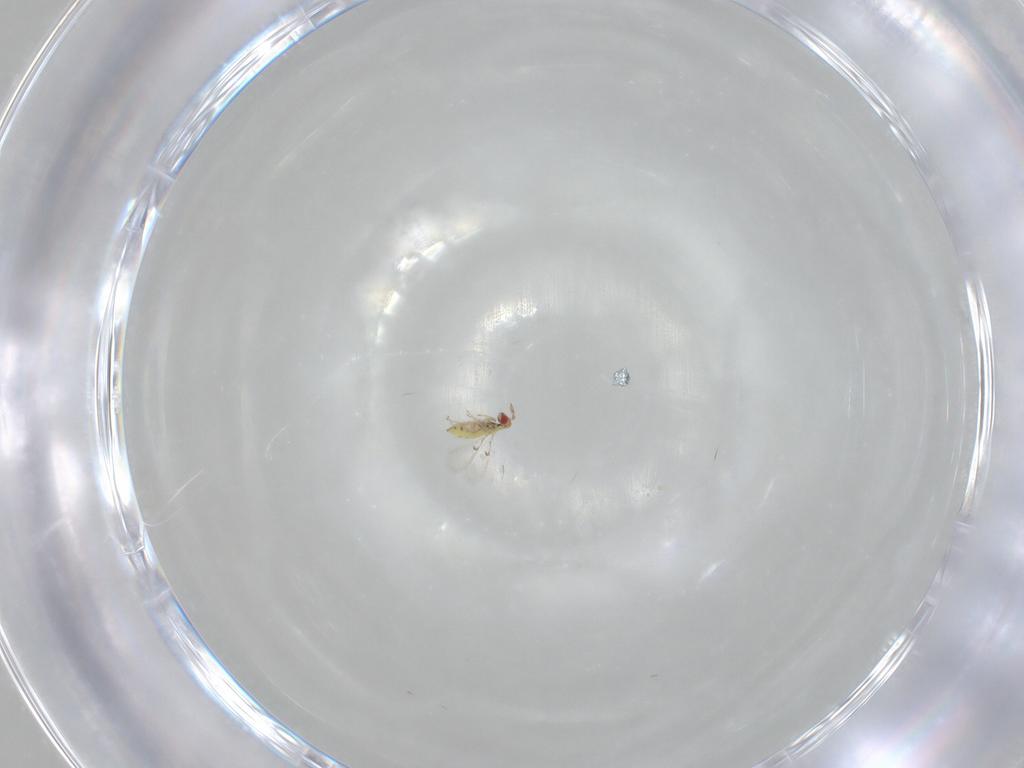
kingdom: Animalia
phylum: Arthropoda
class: Insecta
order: Hymenoptera
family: Trichogrammatidae
